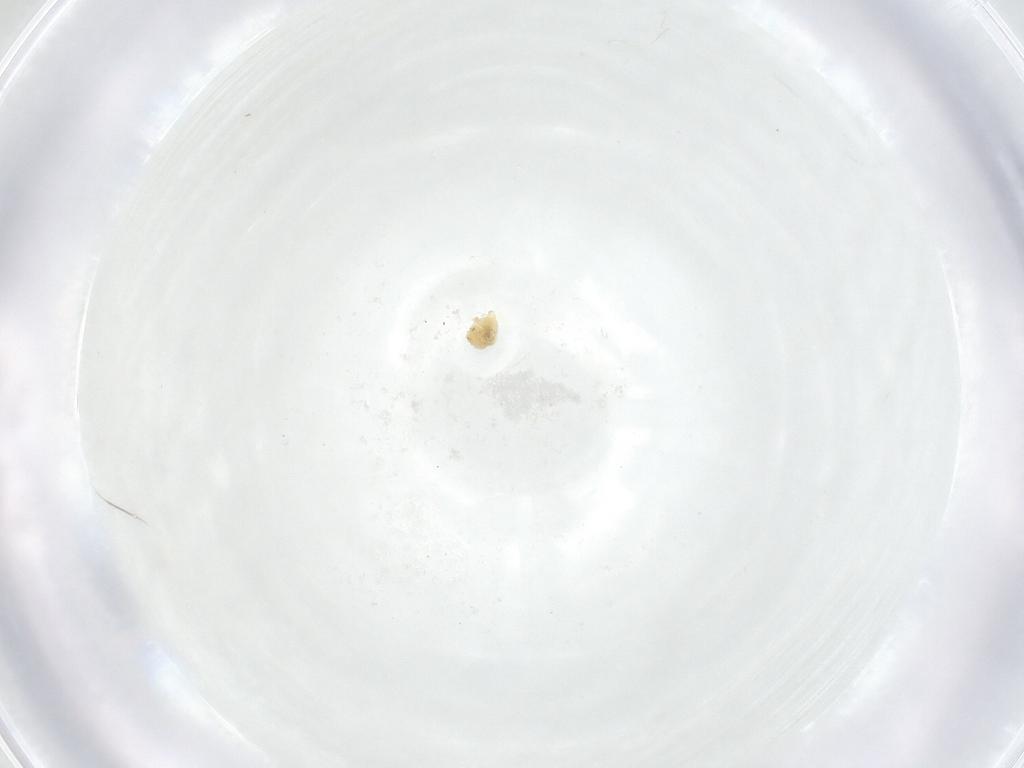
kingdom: Animalia
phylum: Arthropoda
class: Insecta
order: Diptera
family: Fergusoninidae
